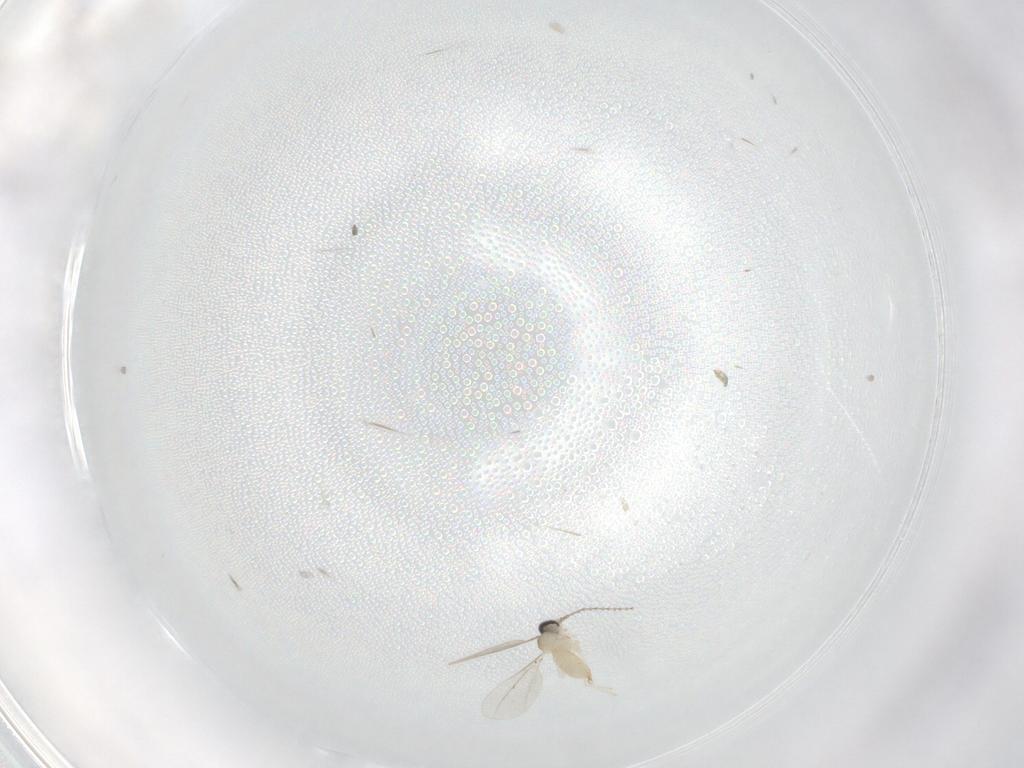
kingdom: Animalia
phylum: Arthropoda
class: Insecta
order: Diptera
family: Cecidomyiidae
